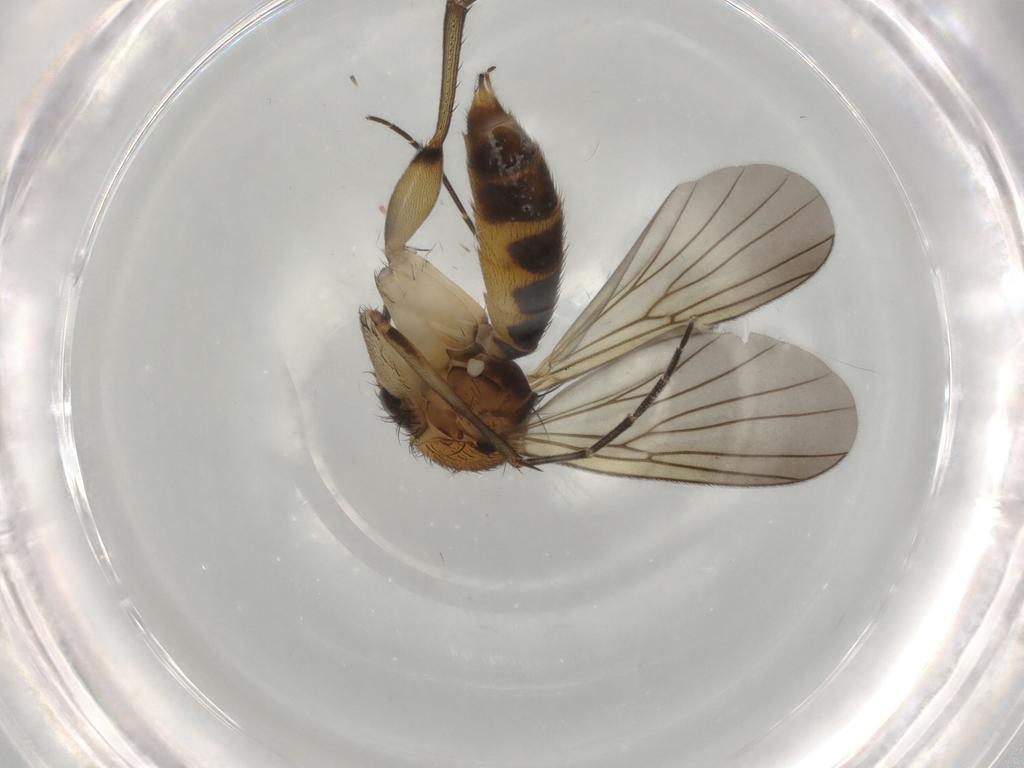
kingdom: Animalia
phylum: Arthropoda
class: Insecta
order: Diptera
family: Mycetophilidae
